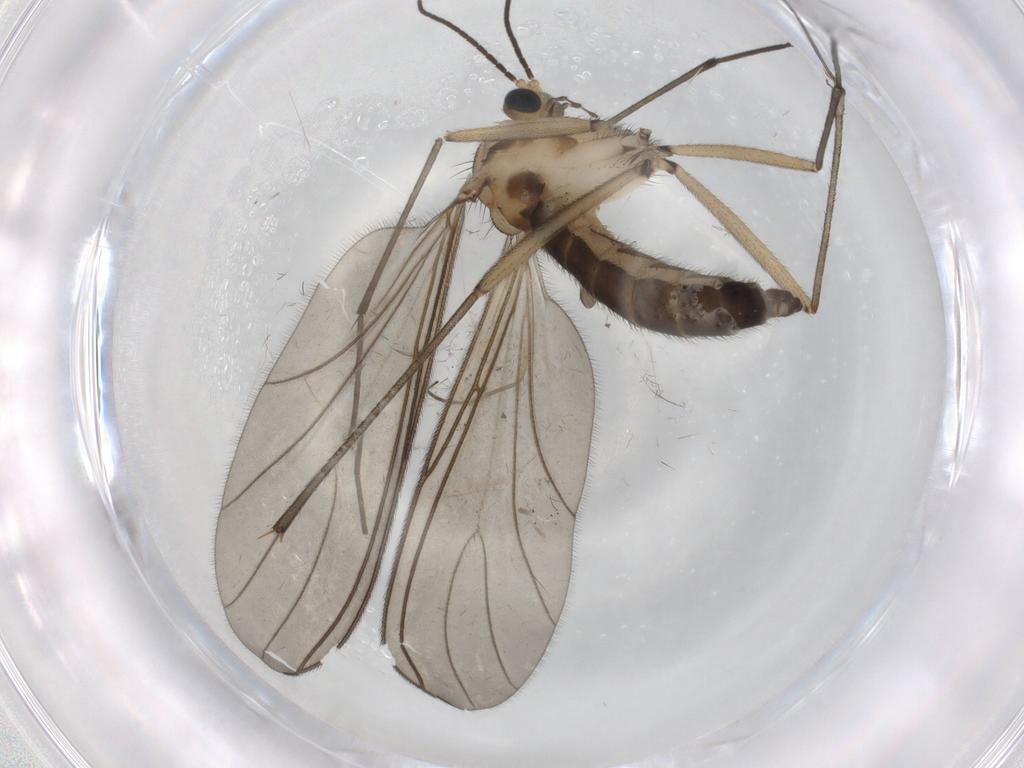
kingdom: Animalia
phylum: Arthropoda
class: Insecta
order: Diptera
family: Sciaridae
